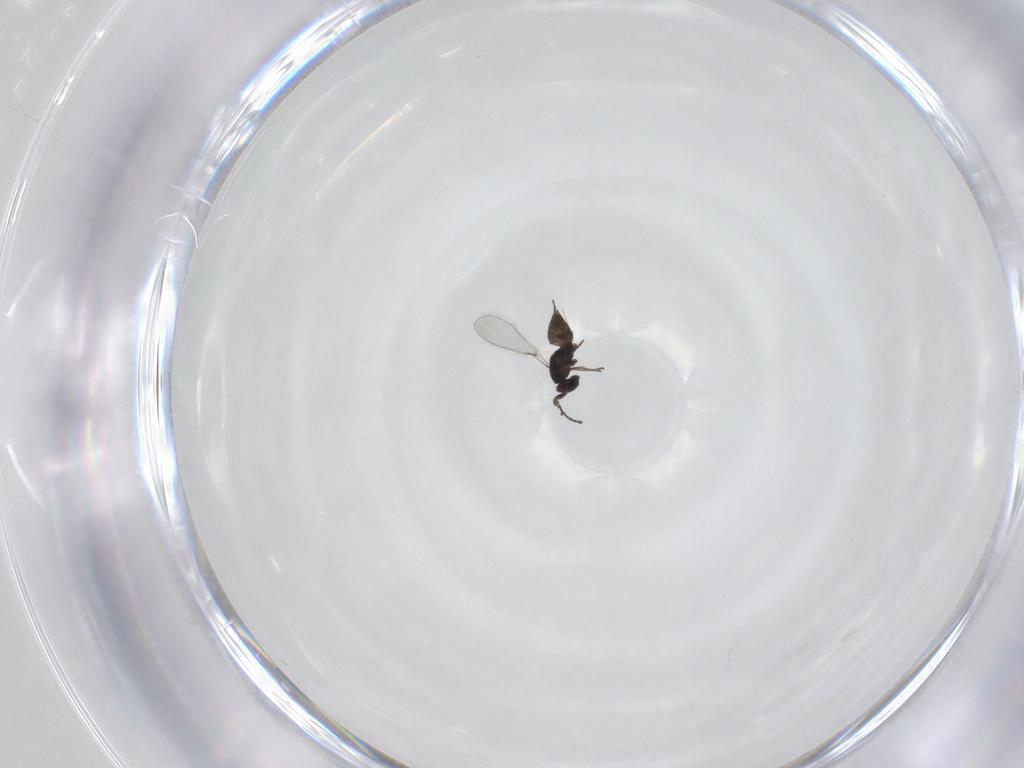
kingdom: Animalia
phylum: Arthropoda
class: Insecta
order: Hymenoptera
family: Mymaridae
